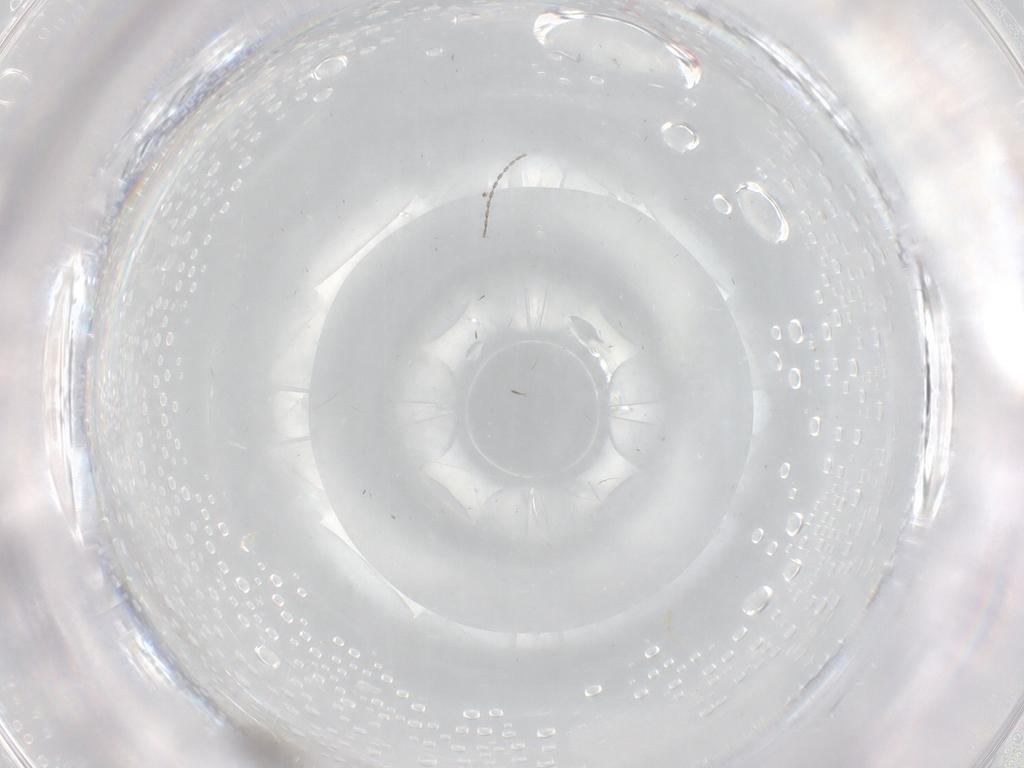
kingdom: Animalia
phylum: Arthropoda
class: Insecta
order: Diptera
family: Cecidomyiidae
